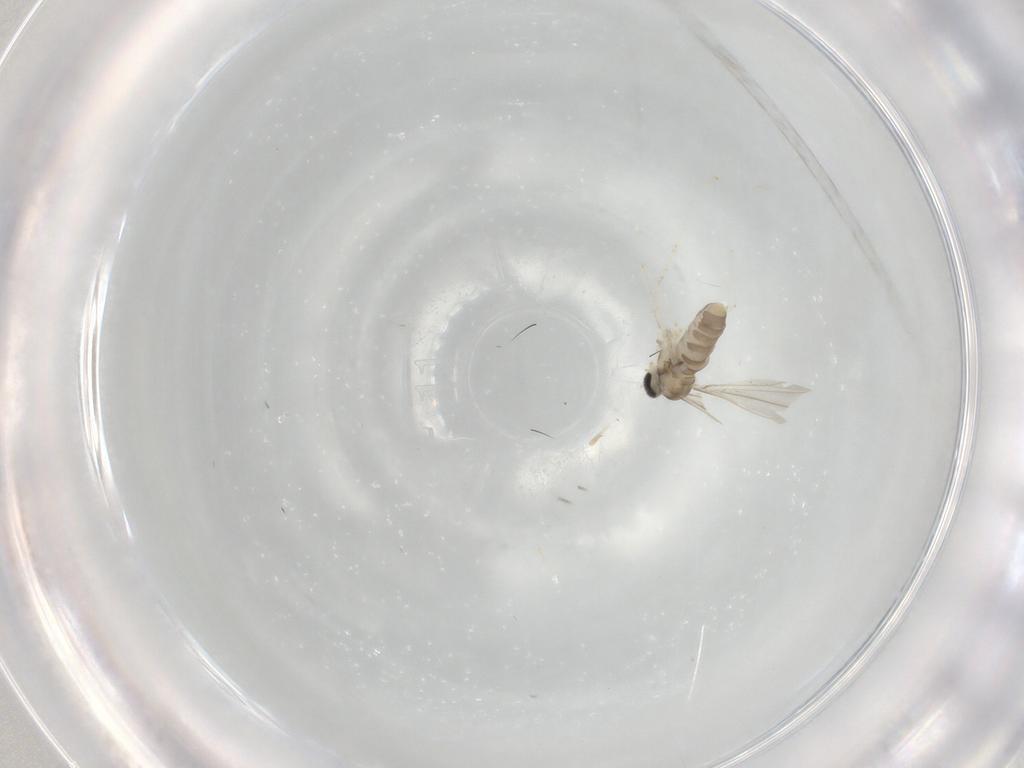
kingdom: Animalia
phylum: Arthropoda
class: Insecta
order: Diptera
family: Cecidomyiidae
